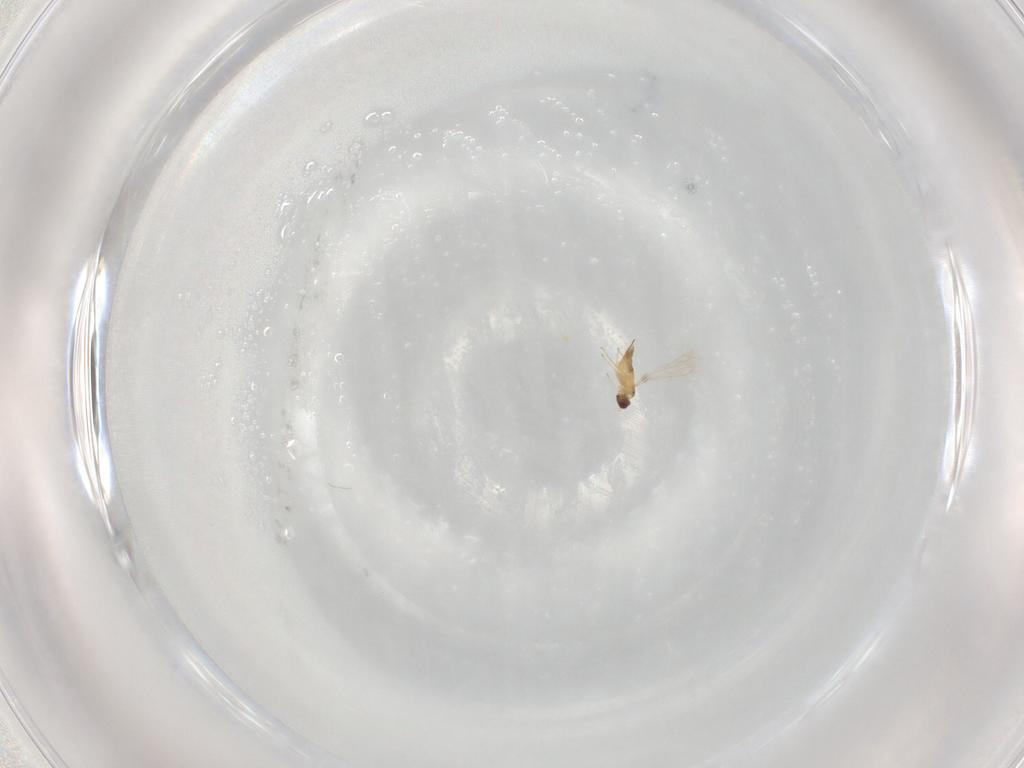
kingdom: Animalia
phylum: Arthropoda
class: Insecta
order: Hymenoptera
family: Mymaridae
